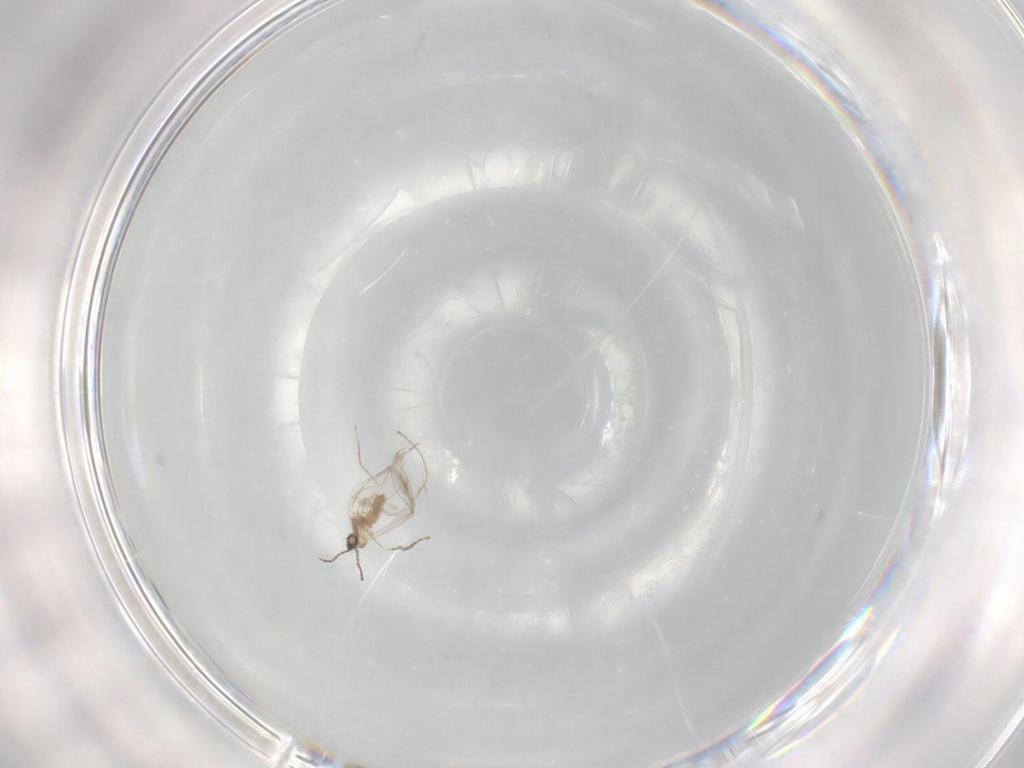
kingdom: Animalia
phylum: Arthropoda
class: Insecta
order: Diptera
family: Cecidomyiidae
